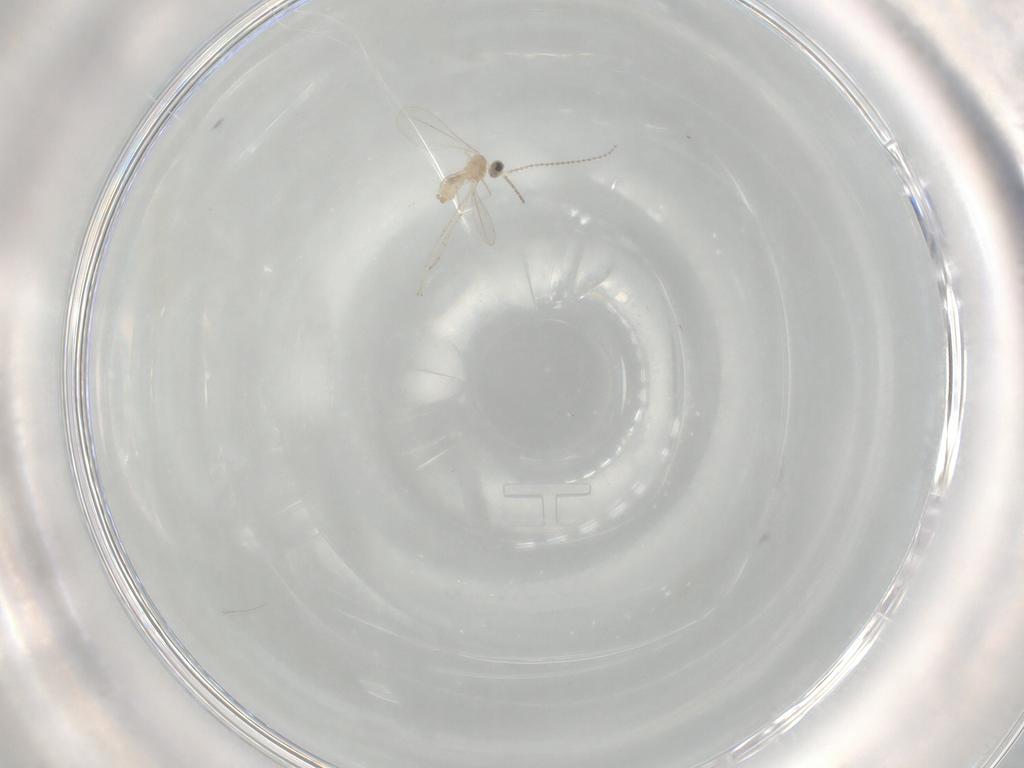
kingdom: Animalia
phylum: Arthropoda
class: Insecta
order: Diptera
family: Cecidomyiidae
